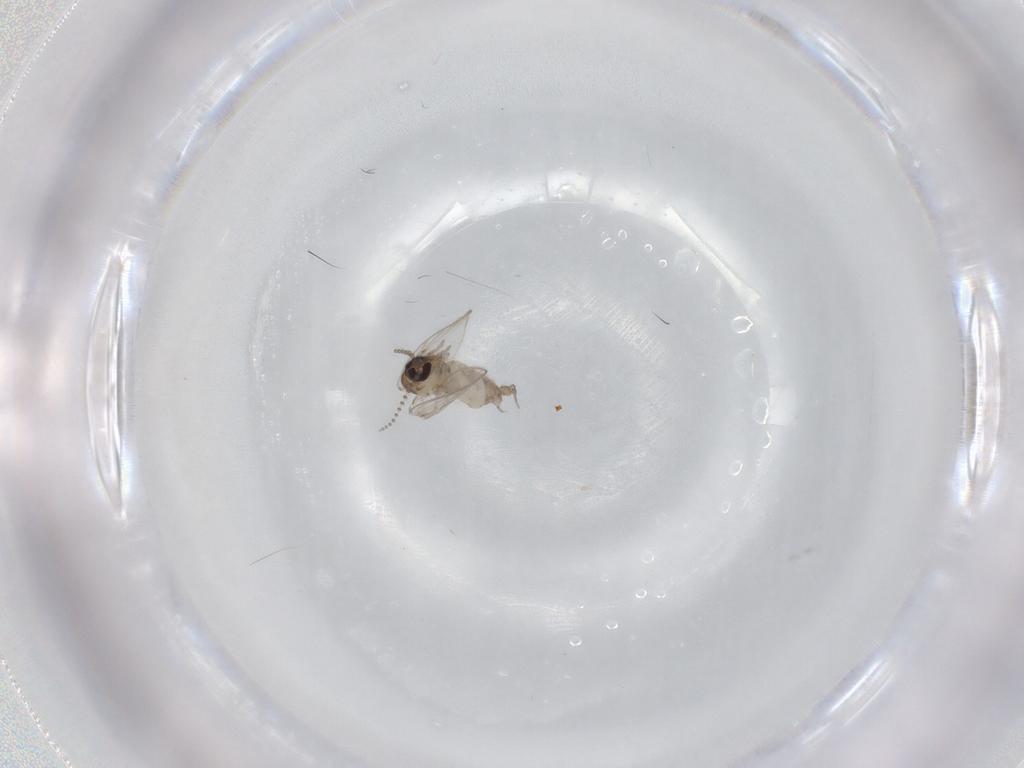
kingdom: Animalia
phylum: Arthropoda
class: Insecta
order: Diptera
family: Psychodidae
